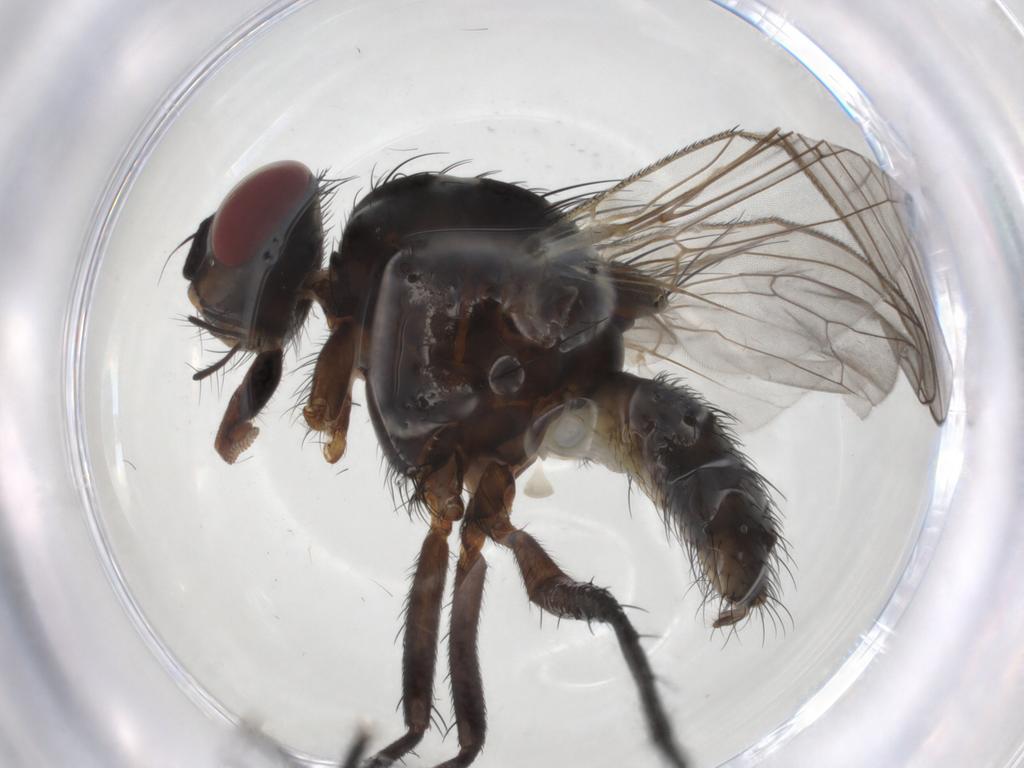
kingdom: Animalia
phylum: Arthropoda
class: Insecta
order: Diptera
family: Anthomyiidae
